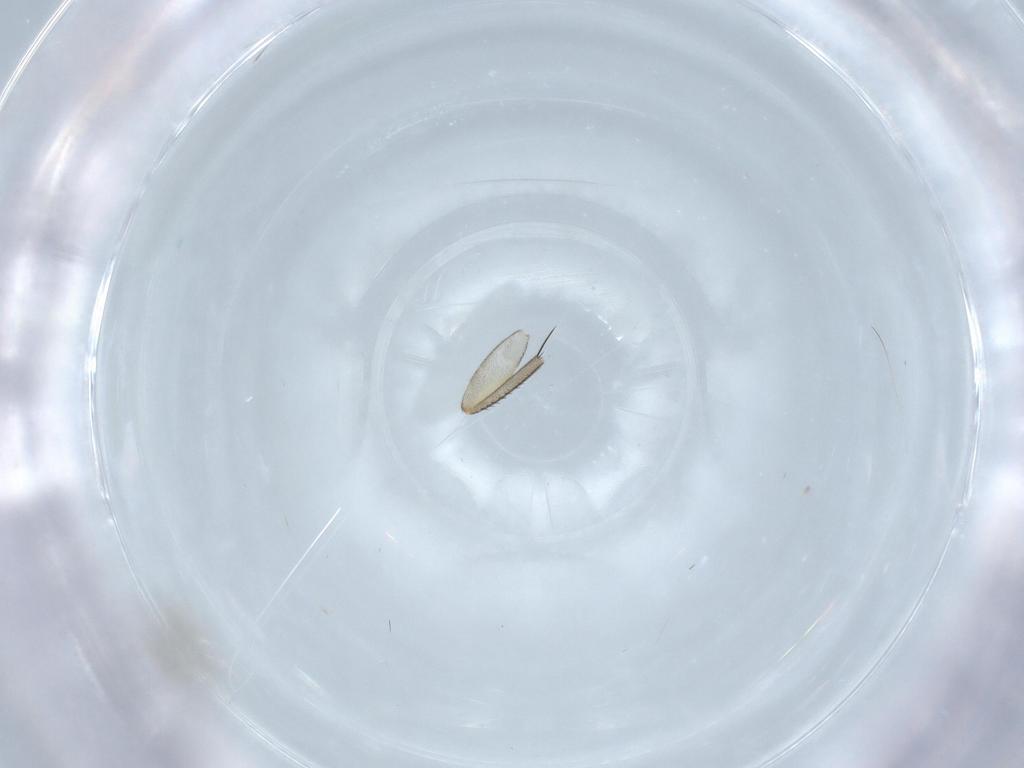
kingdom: Animalia
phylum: Arthropoda
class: Insecta
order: Diptera
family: Phoridae
